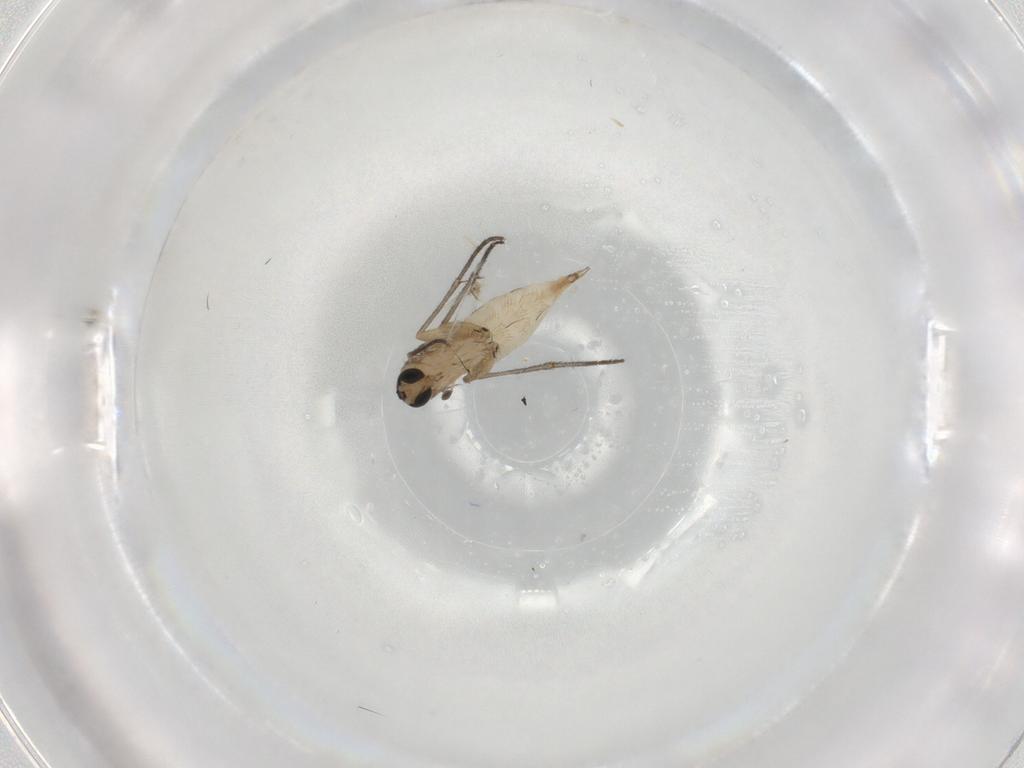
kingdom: Animalia
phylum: Arthropoda
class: Insecta
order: Diptera
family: Sciaridae
